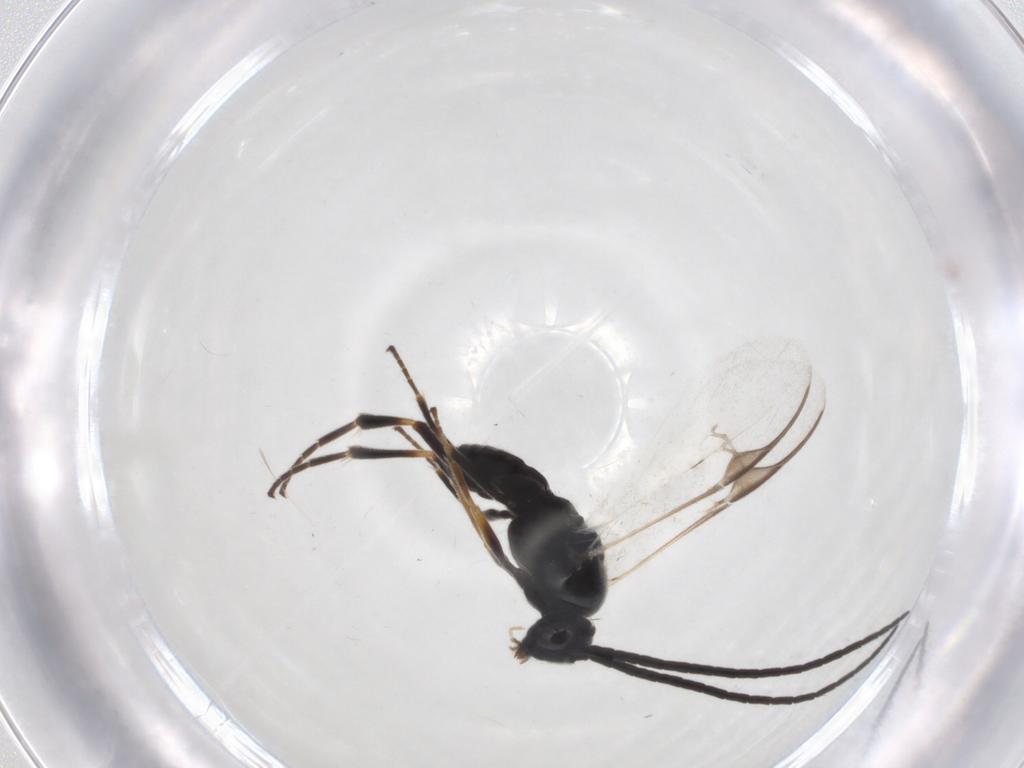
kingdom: Animalia
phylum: Arthropoda
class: Insecta
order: Hymenoptera
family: Braconidae
